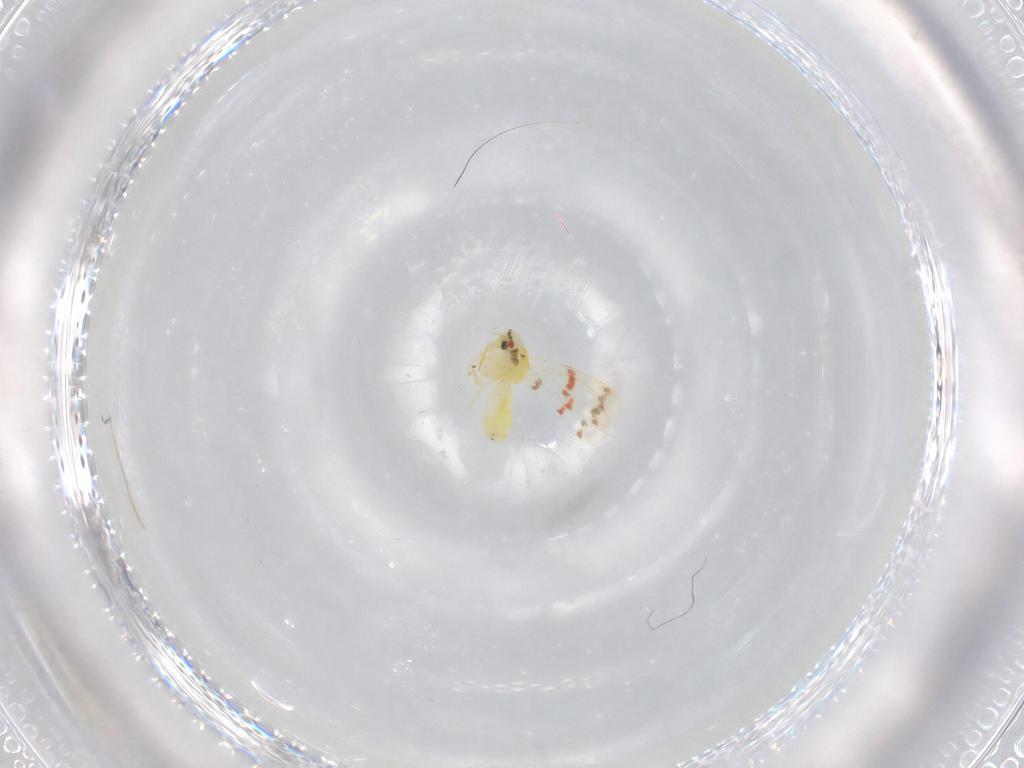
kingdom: Animalia
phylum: Arthropoda
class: Insecta
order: Hemiptera
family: Aleyrodidae
